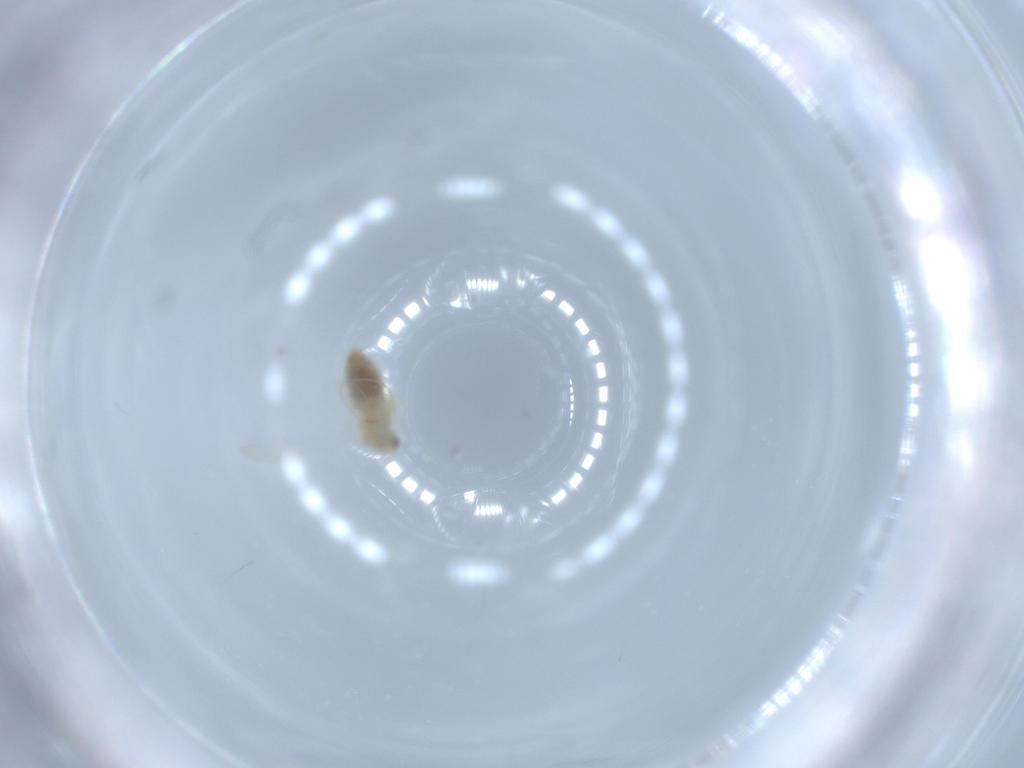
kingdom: Animalia
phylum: Arthropoda
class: Insecta
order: Hemiptera
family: Aleyrodidae
